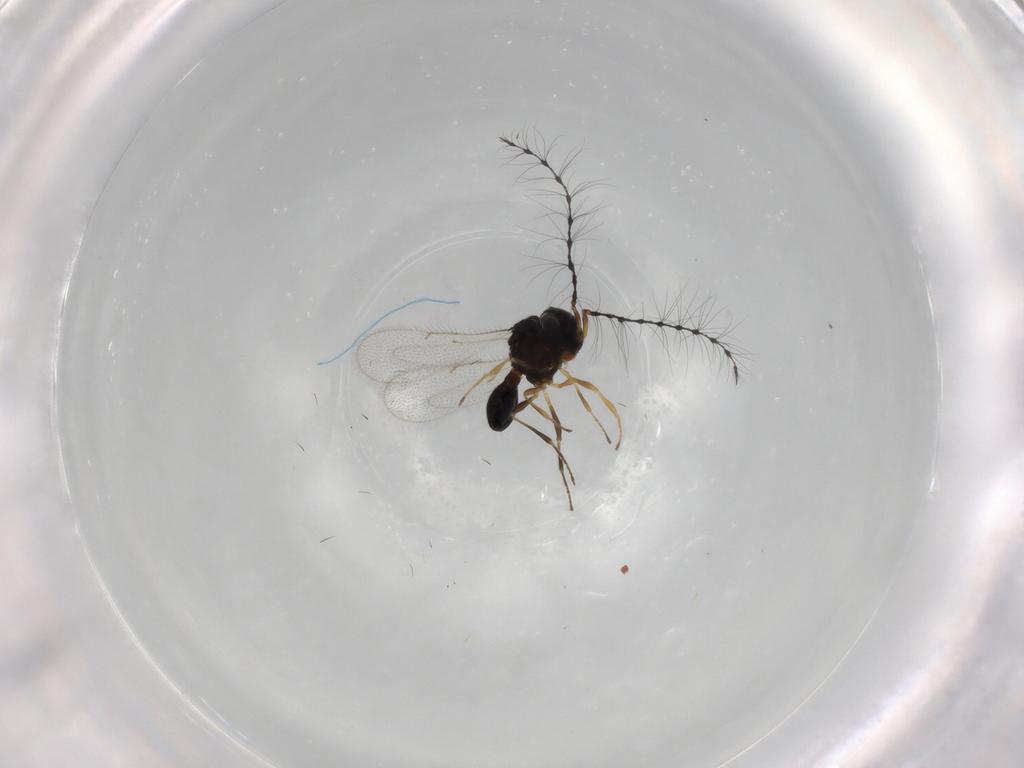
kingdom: Animalia
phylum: Arthropoda
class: Insecta
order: Hymenoptera
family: Scelionidae
